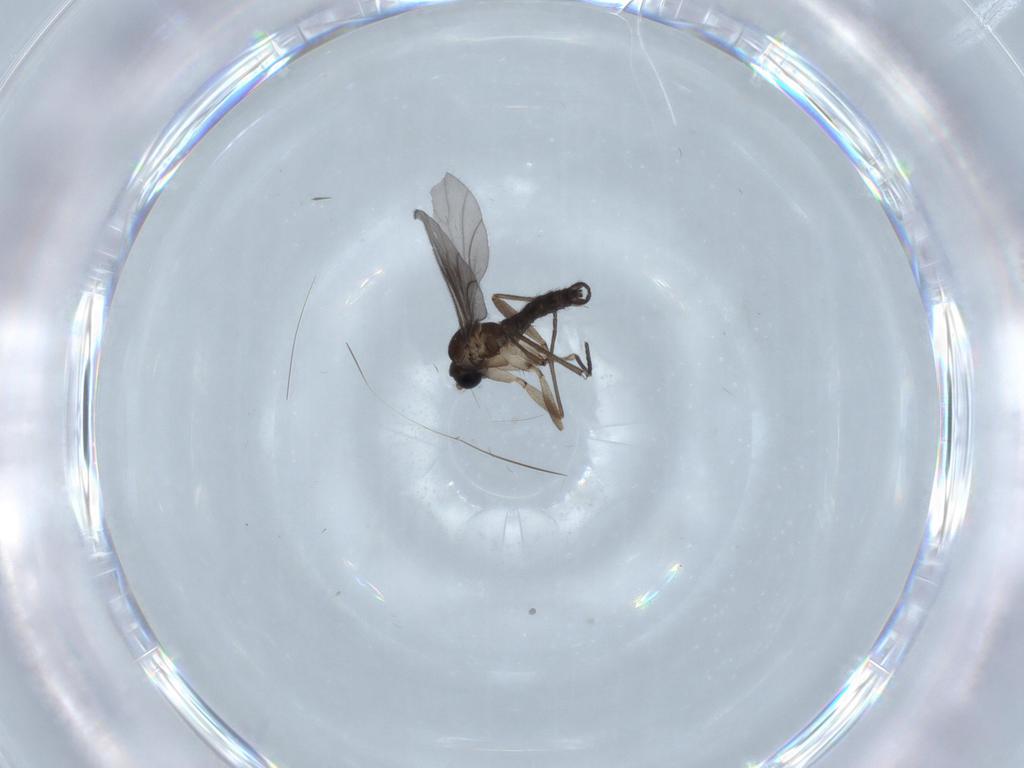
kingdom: Animalia
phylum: Arthropoda
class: Insecta
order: Diptera
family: Sciaridae
